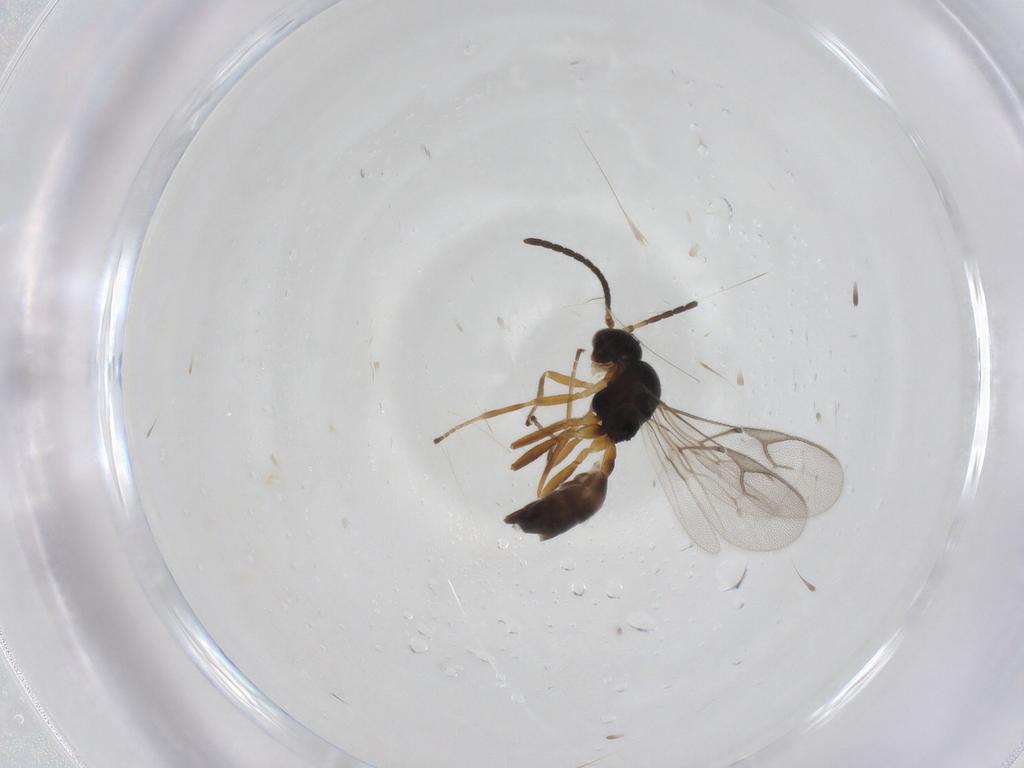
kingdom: Animalia
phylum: Arthropoda
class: Insecta
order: Hymenoptera
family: Braconidae
